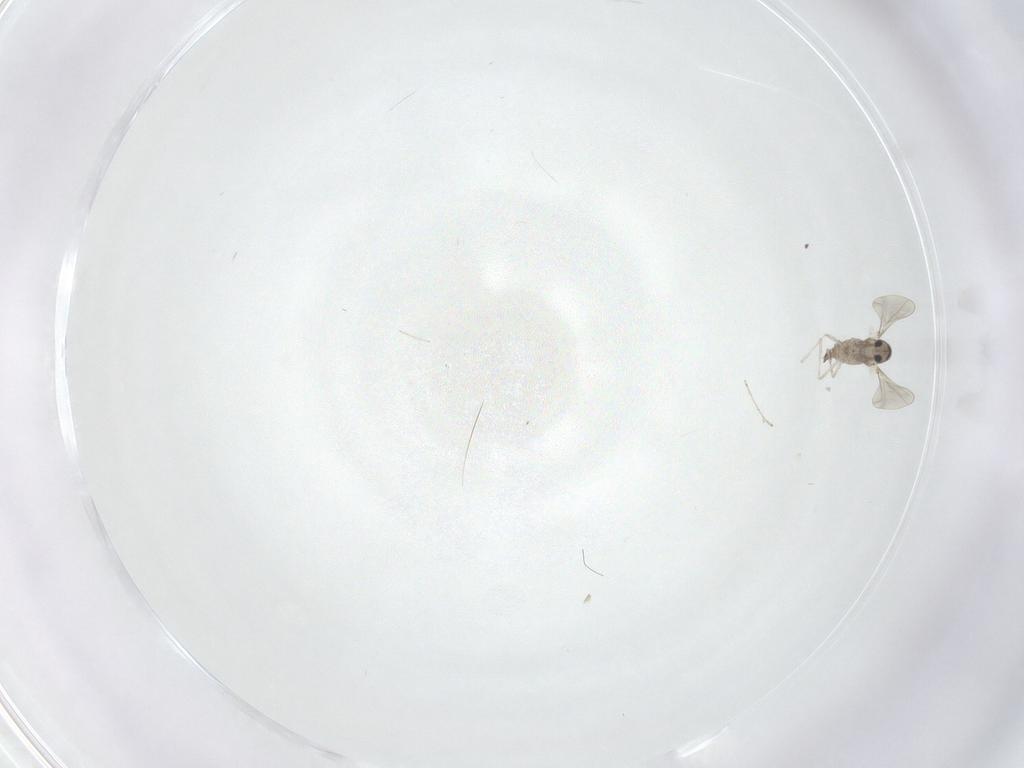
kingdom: Animalia
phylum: Arthropoda
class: Insecta
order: Diptera
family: Cecidomyiidae
